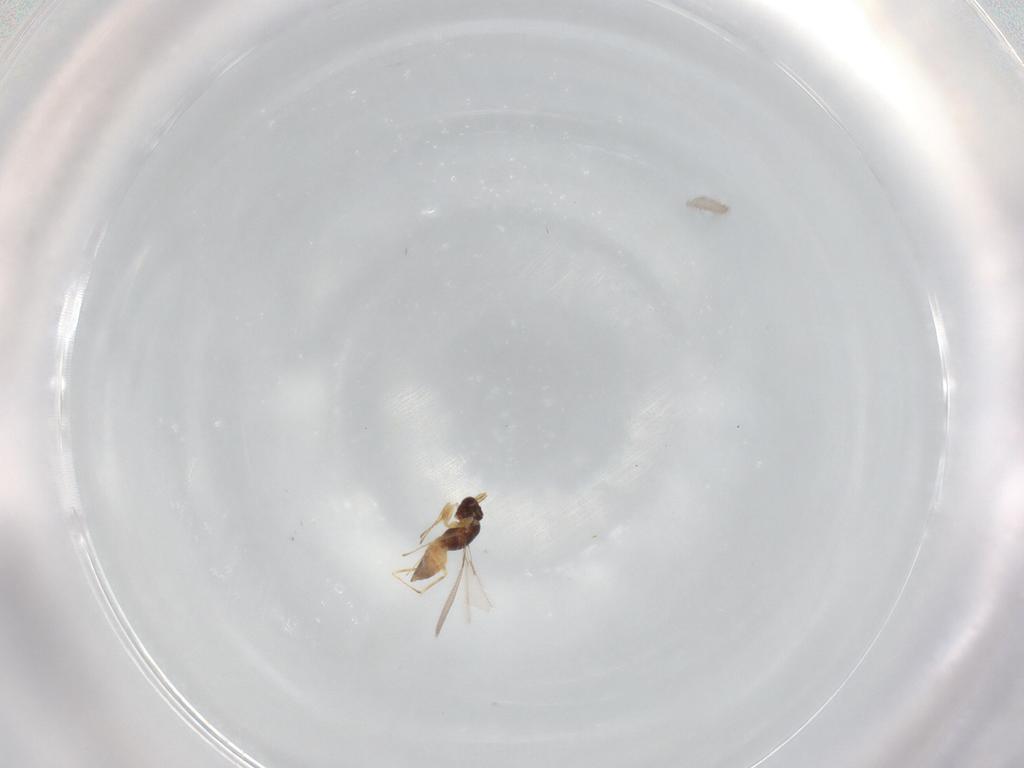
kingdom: Animalia
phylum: Arthropoda
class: Insecta
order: Hymenoptera
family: Mymaridae
